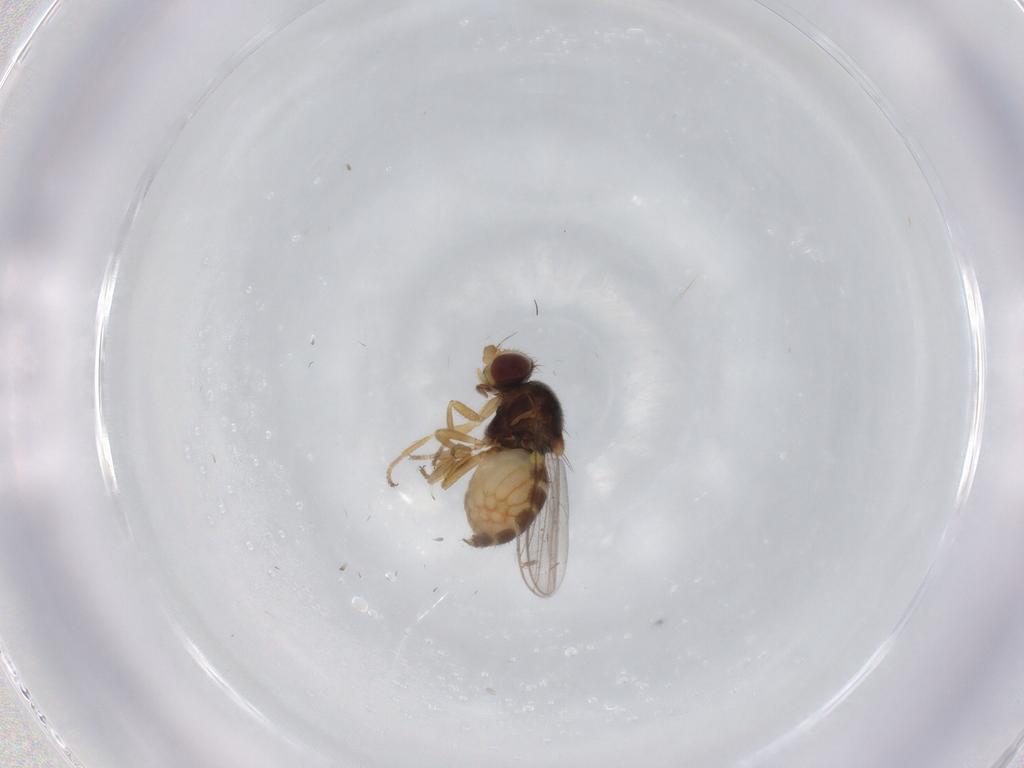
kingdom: Animalia
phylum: Arthropoda
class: Insecta
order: Diptera
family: Chloropidae
